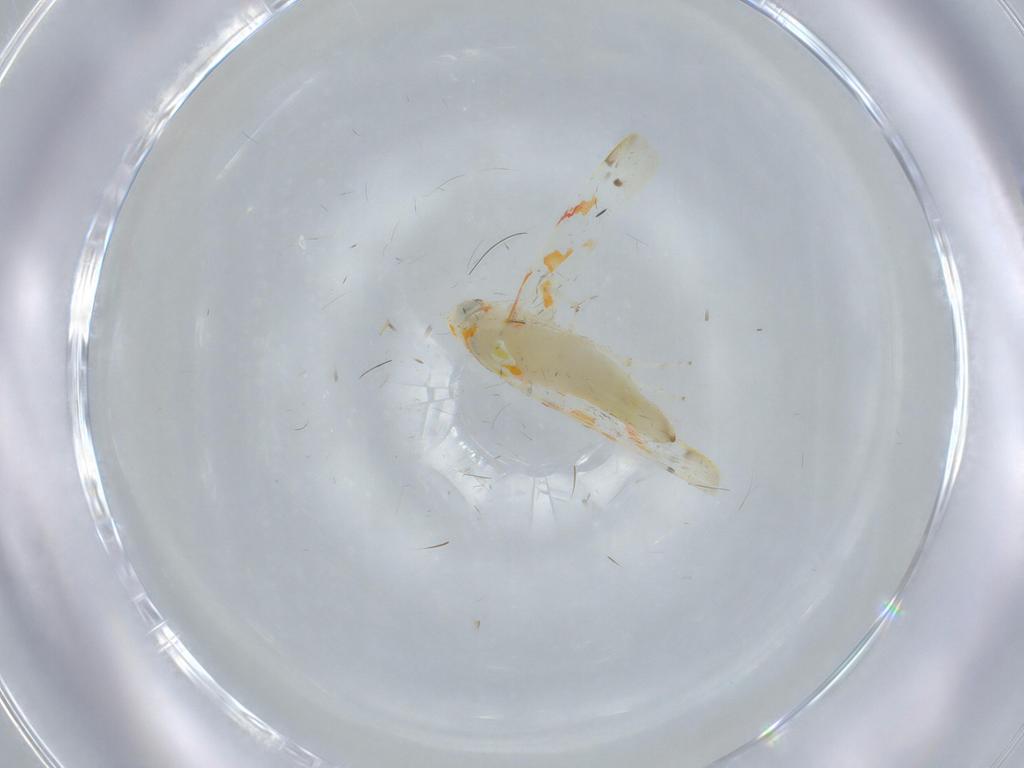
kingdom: Animalia
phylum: Arthropoda
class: Insecta
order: Hemiptera
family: Cicadellidae
